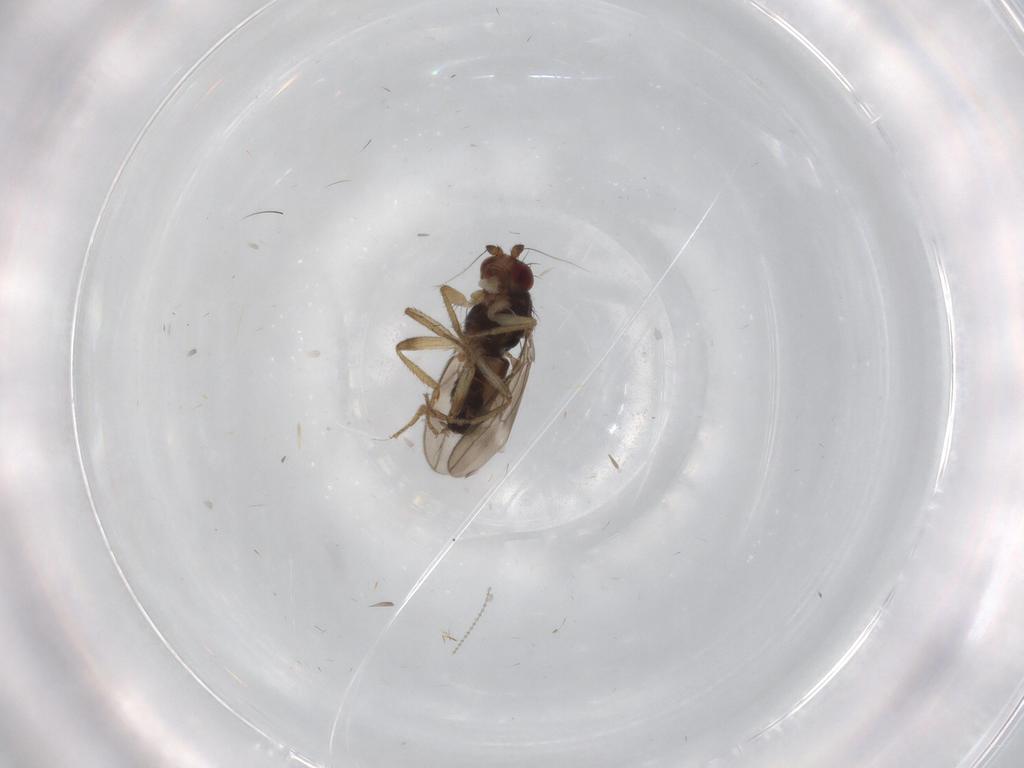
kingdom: Animalia
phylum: Arthropoda
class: Insecta
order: Diptera
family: Sphaeroceridae
